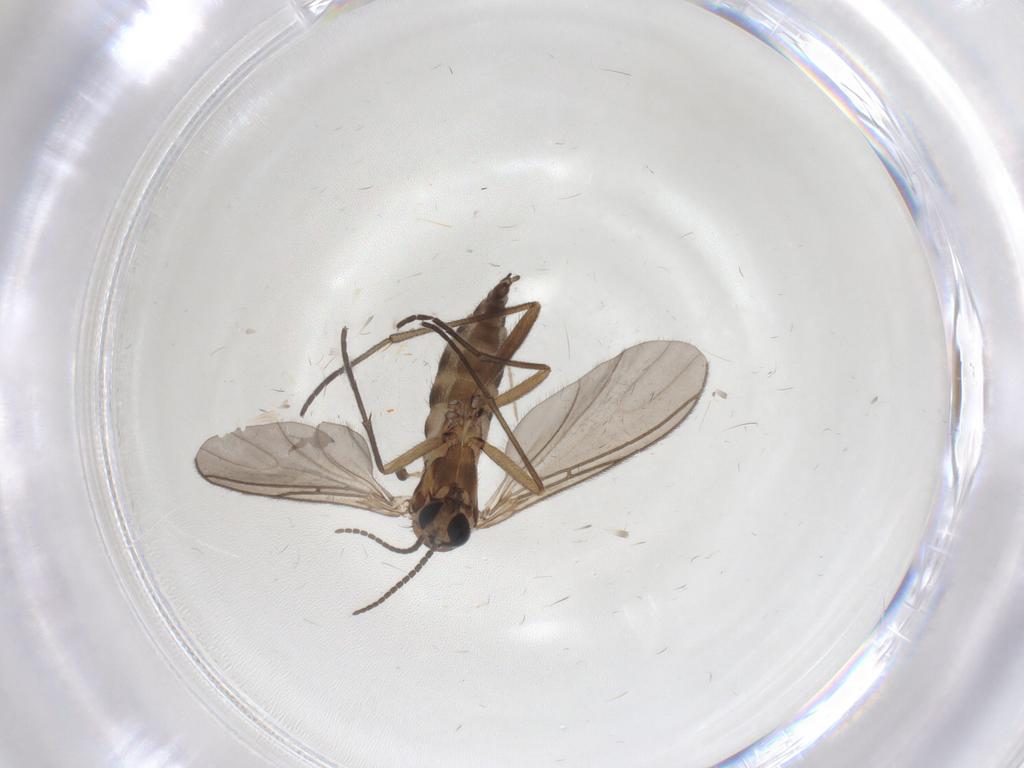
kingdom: Animalia
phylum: Arthropoda
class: Insecta
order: Diptera
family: Sciaridae
